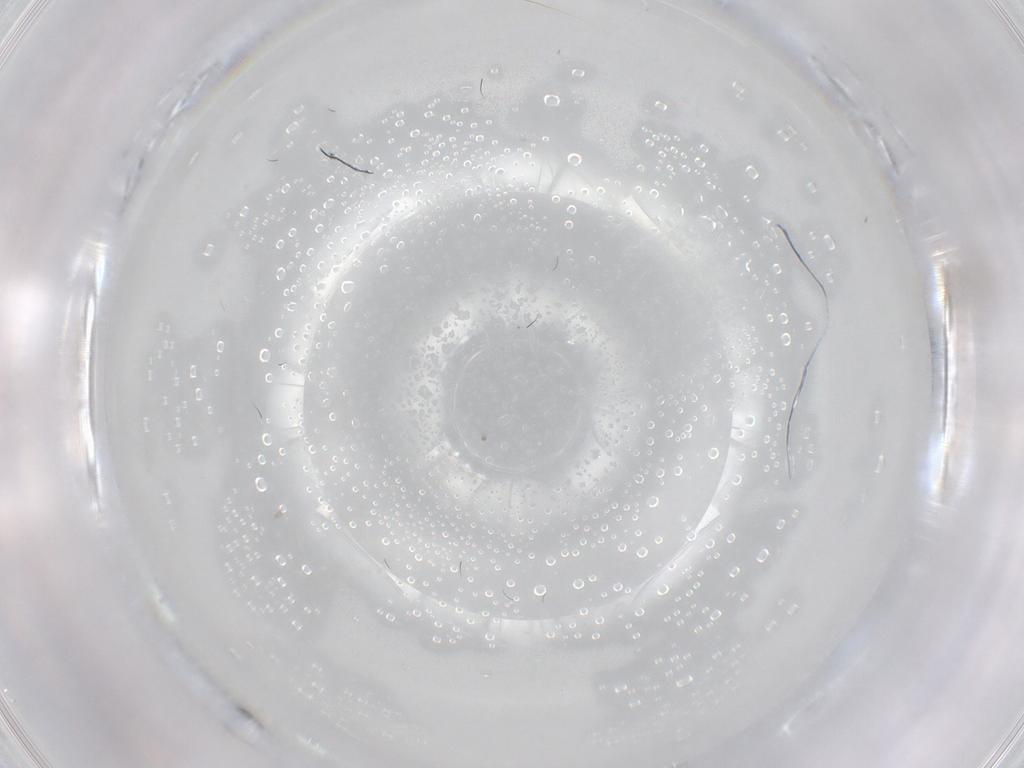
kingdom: Animalia
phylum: Arthropoda
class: Insecta
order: Diptera
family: Cecidomyiidae
